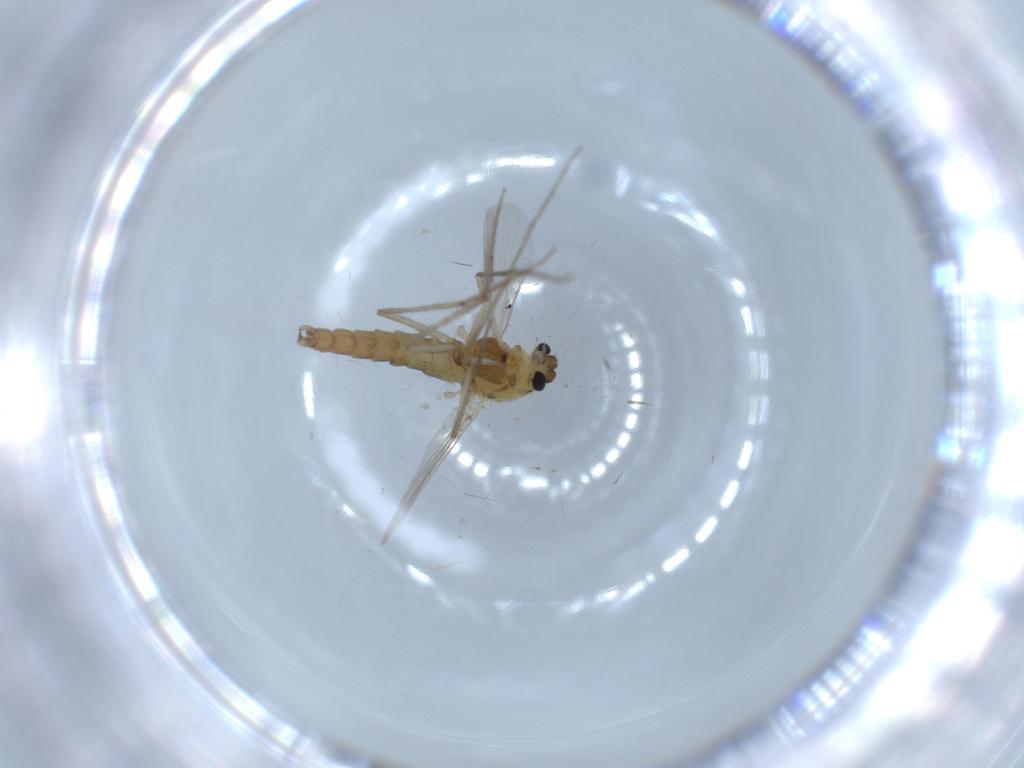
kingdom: Animalia
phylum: Arthropoda
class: Insecta
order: Diptera
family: Chironomidae
